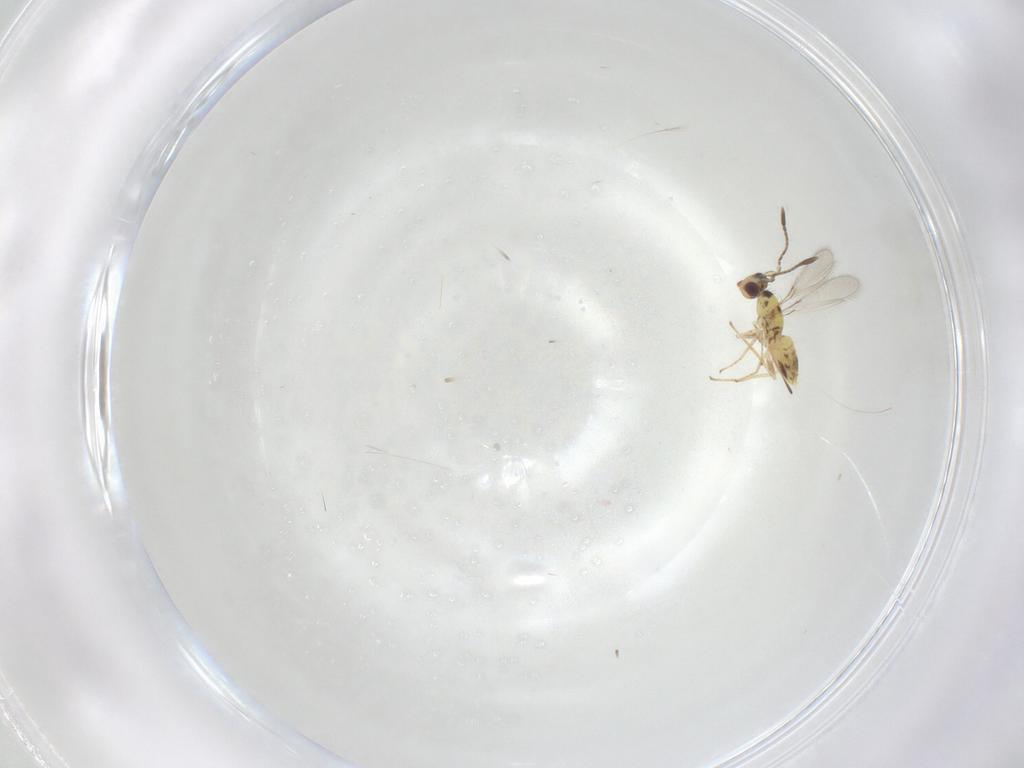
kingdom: Animalia
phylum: Arthropoda
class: Insecta
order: Hymenoptera
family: Mymaridae
